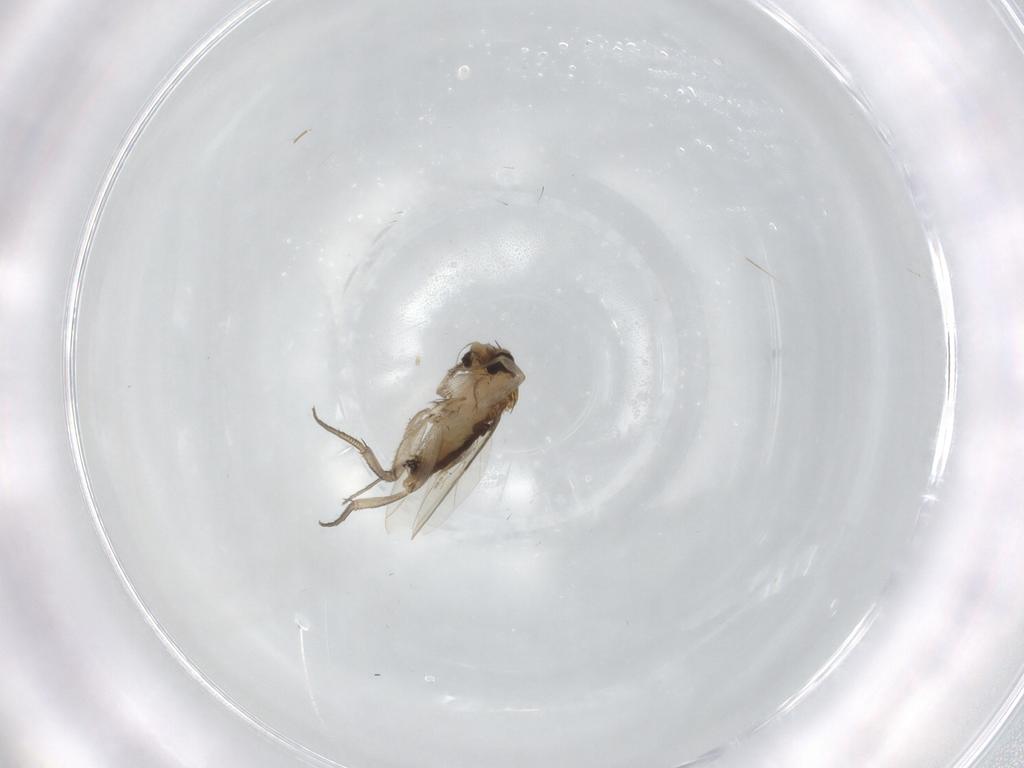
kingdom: Animalia
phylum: Arthropoda
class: Insecta
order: Diptera
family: Phoridae
